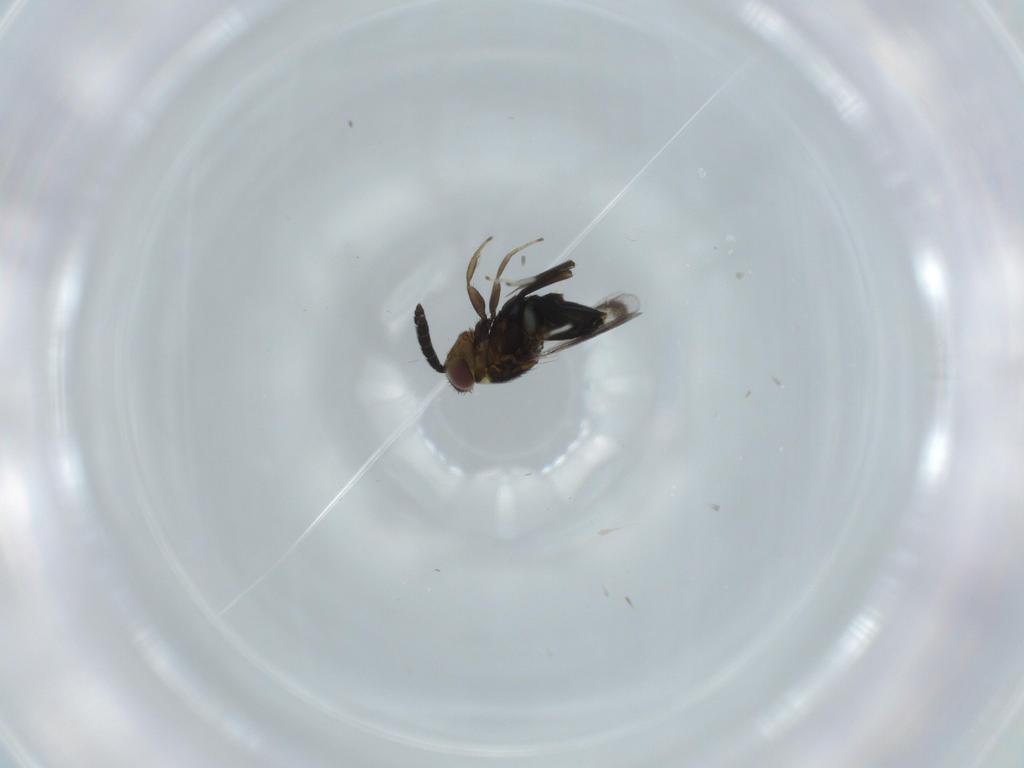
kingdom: Animalia
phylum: Arthropoda
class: Insecta
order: Hymenoptera
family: Aphelinidae
